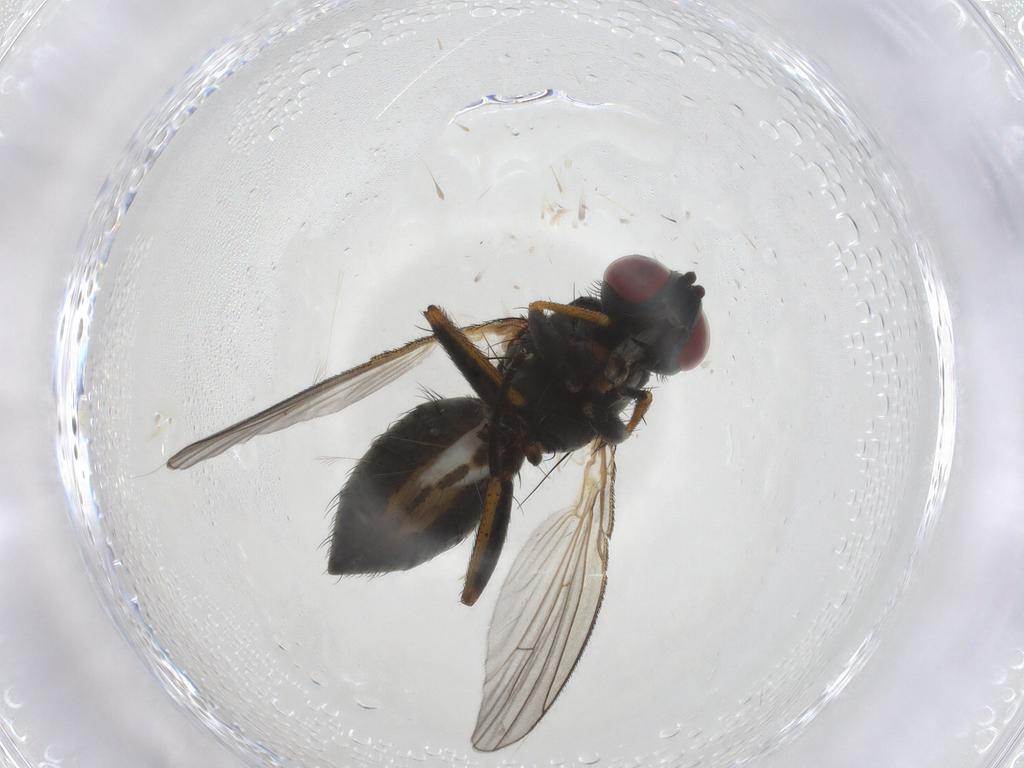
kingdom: Animalia
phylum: Arthropoda
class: Insecta
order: Diptera
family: Muscidae
